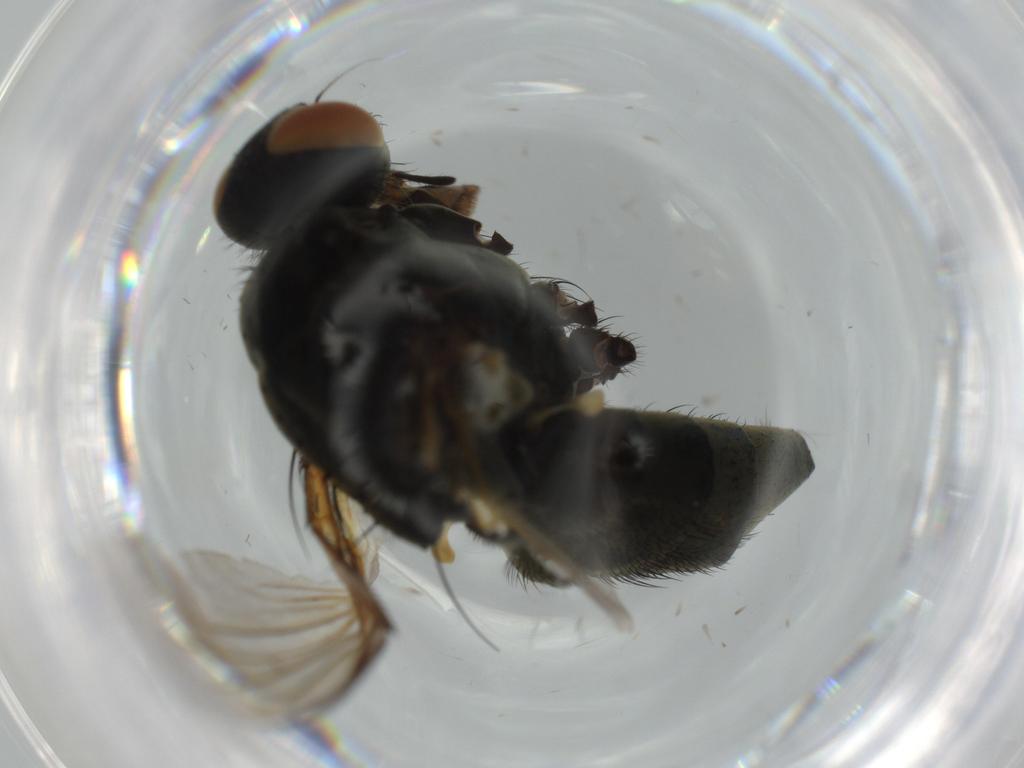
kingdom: Animalia
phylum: Arthropoda
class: Insecta
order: Diptera
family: Muscidae
